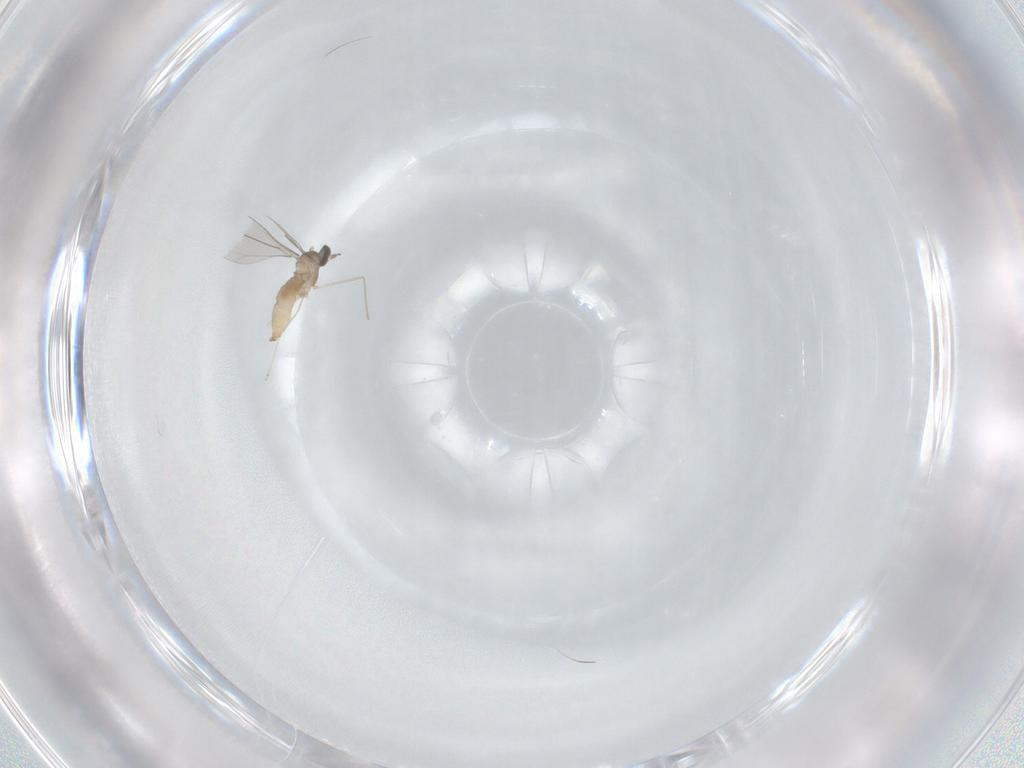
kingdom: Animalia
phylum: Arthropoda
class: Insecta
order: Diptera
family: Cecidomyiidae
